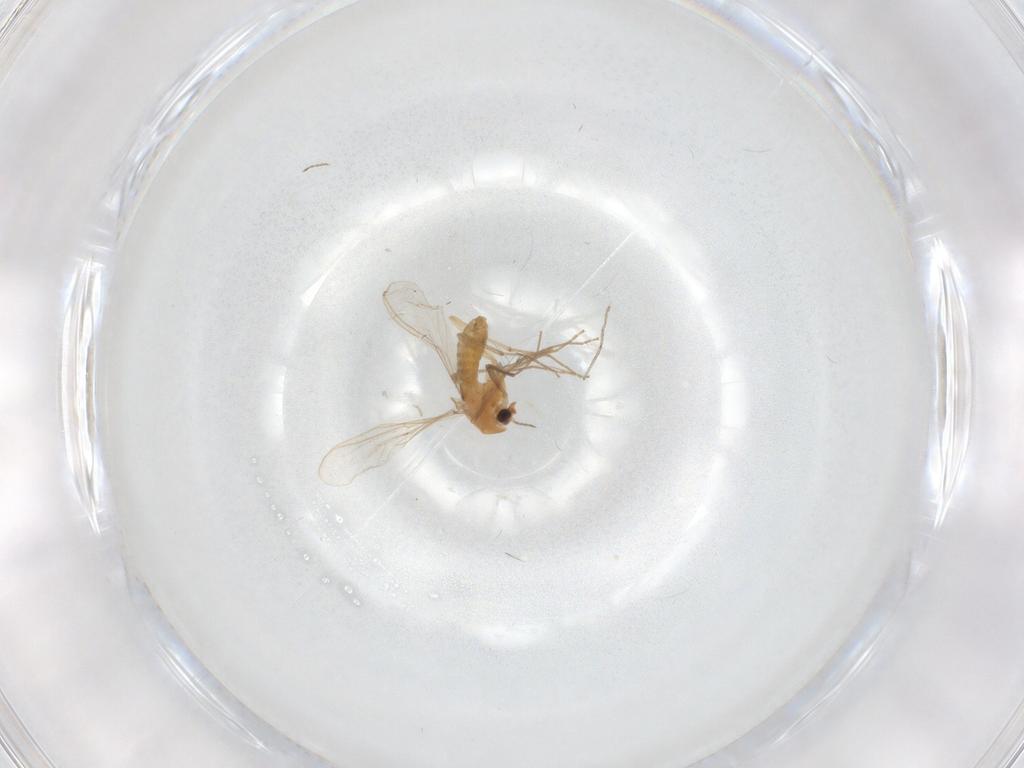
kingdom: Animalia
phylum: Arthropoda
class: Insecta
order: Diptera
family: Chironomidae
